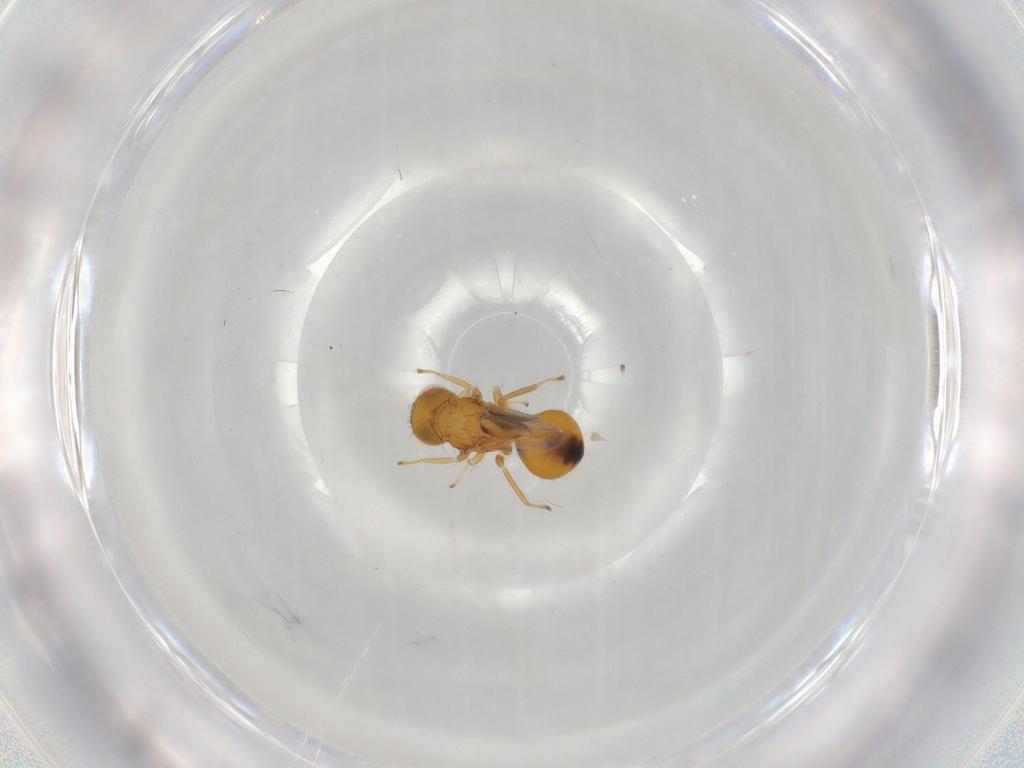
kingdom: Animalia
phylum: Arthropoda
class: Insecta
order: Hymenoptera
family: Eulophidae
